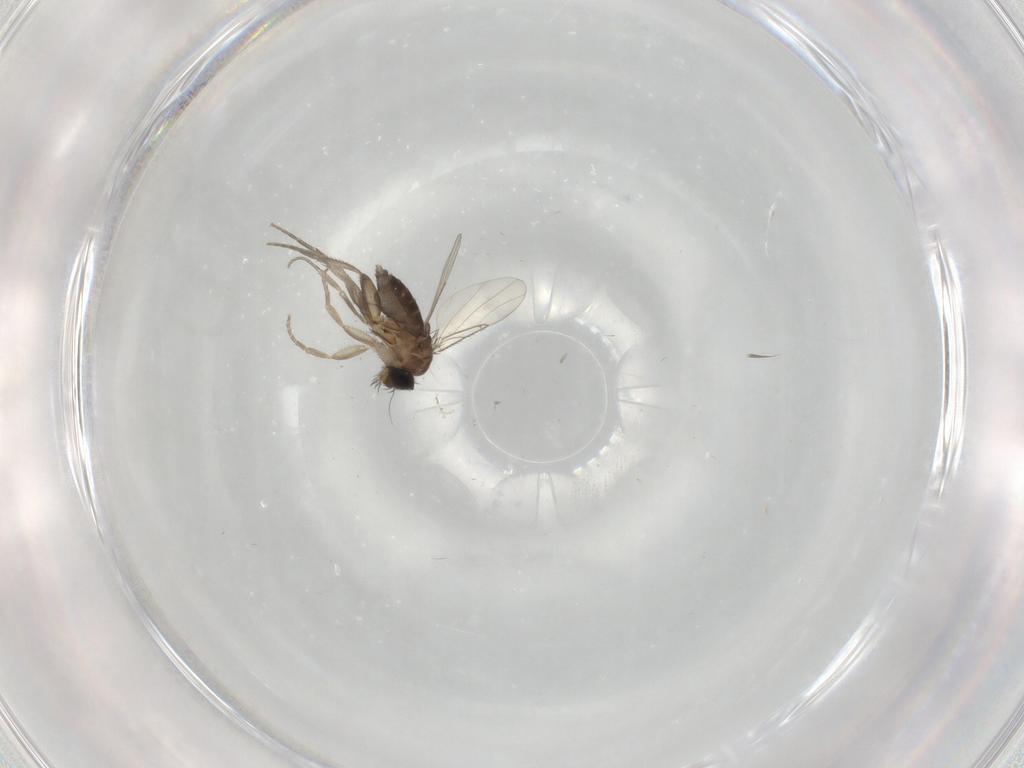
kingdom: Animalia
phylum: Arthropoda
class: Insecta
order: Diptera
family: Phoridae
